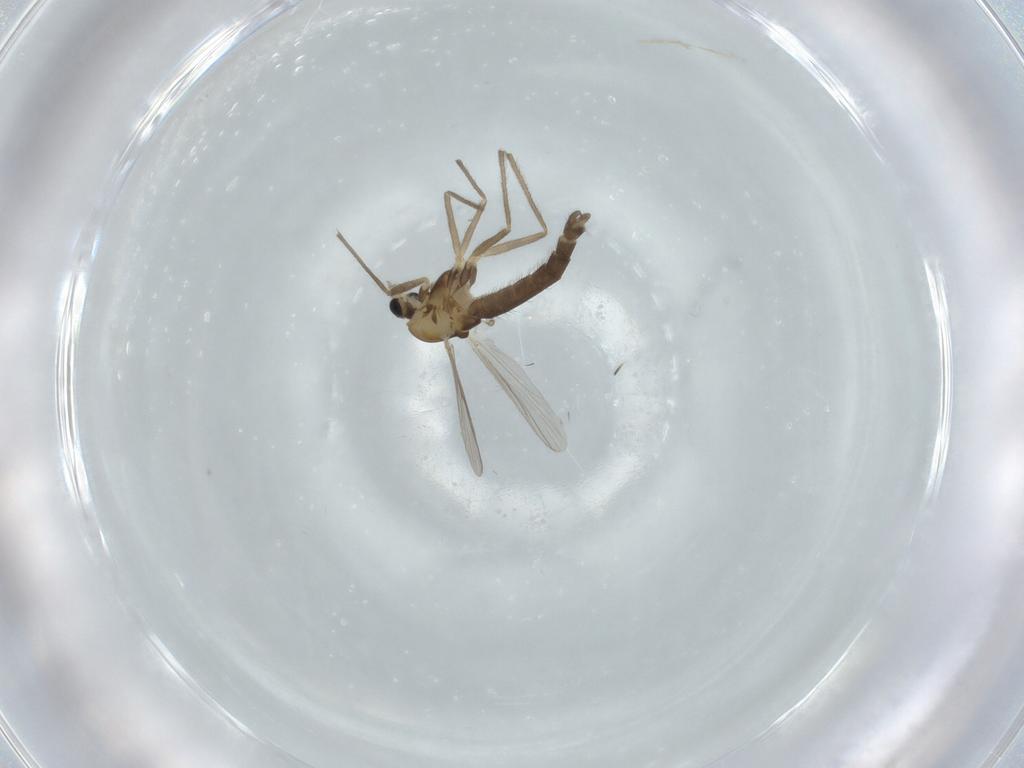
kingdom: Animalia
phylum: Arthropoda
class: Insecta
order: Diptera
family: Chironomidae
